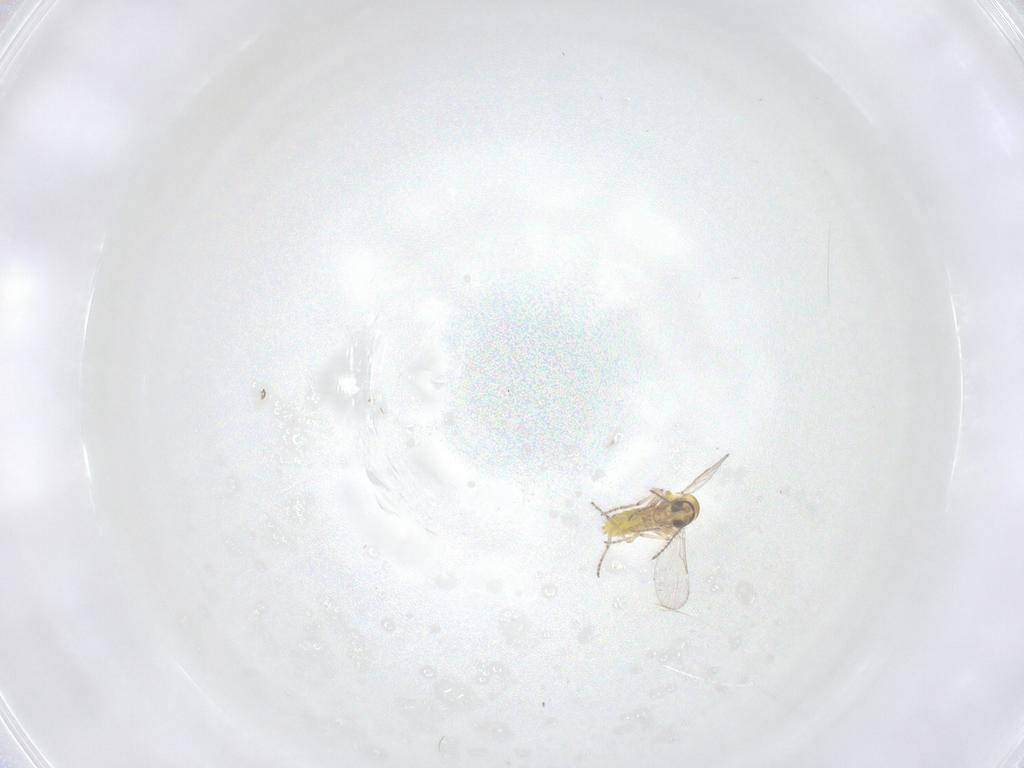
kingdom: Animalia
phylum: Arthropoda
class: Insecta
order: Diptera
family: Ceratopogonidae
